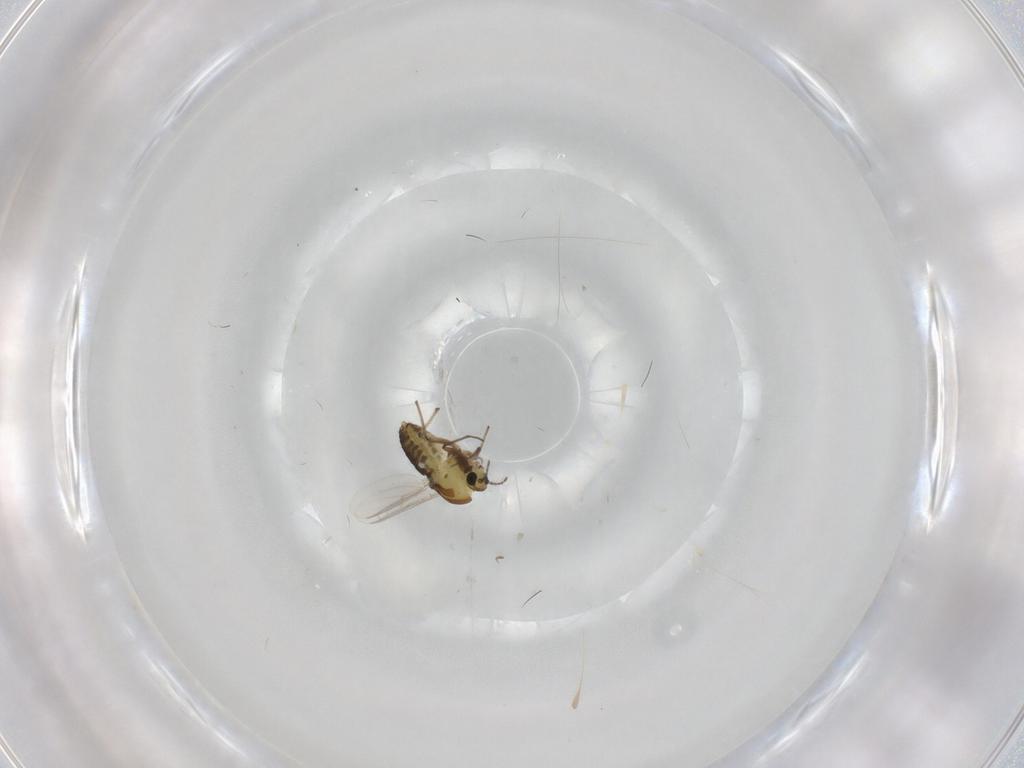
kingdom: Animalia
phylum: Arthropoda
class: Insecta
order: Diptera
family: Chironomidae
